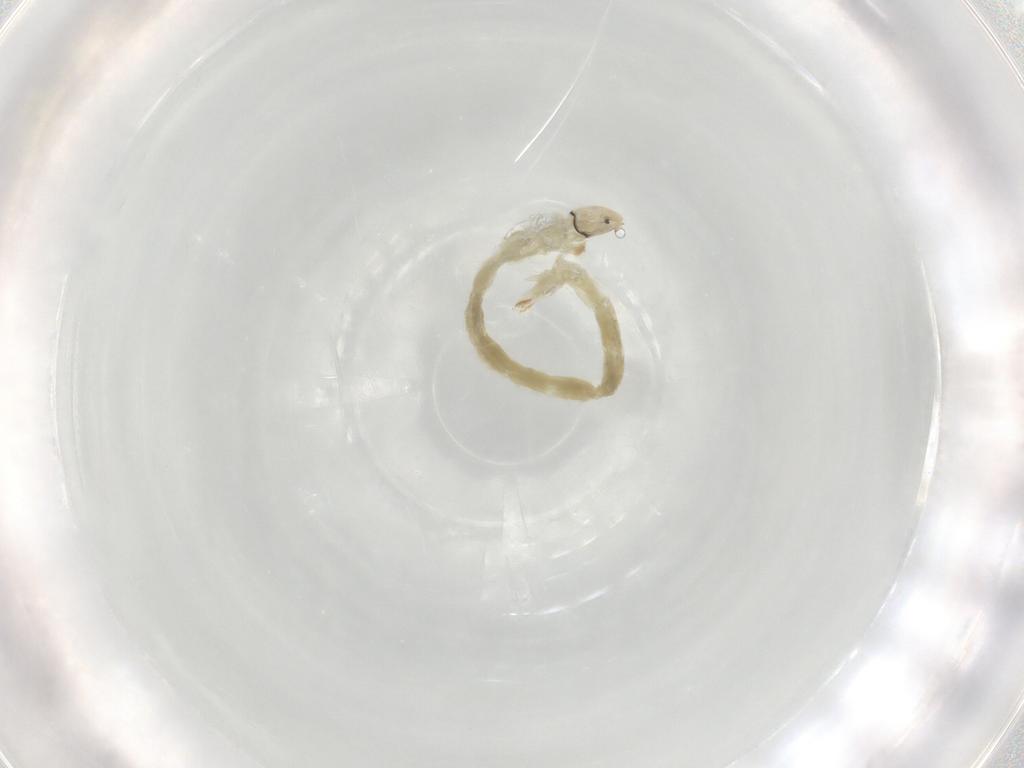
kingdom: Animalia
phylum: Arthropoda
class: Insecta
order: Diptera
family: Chironomidae
